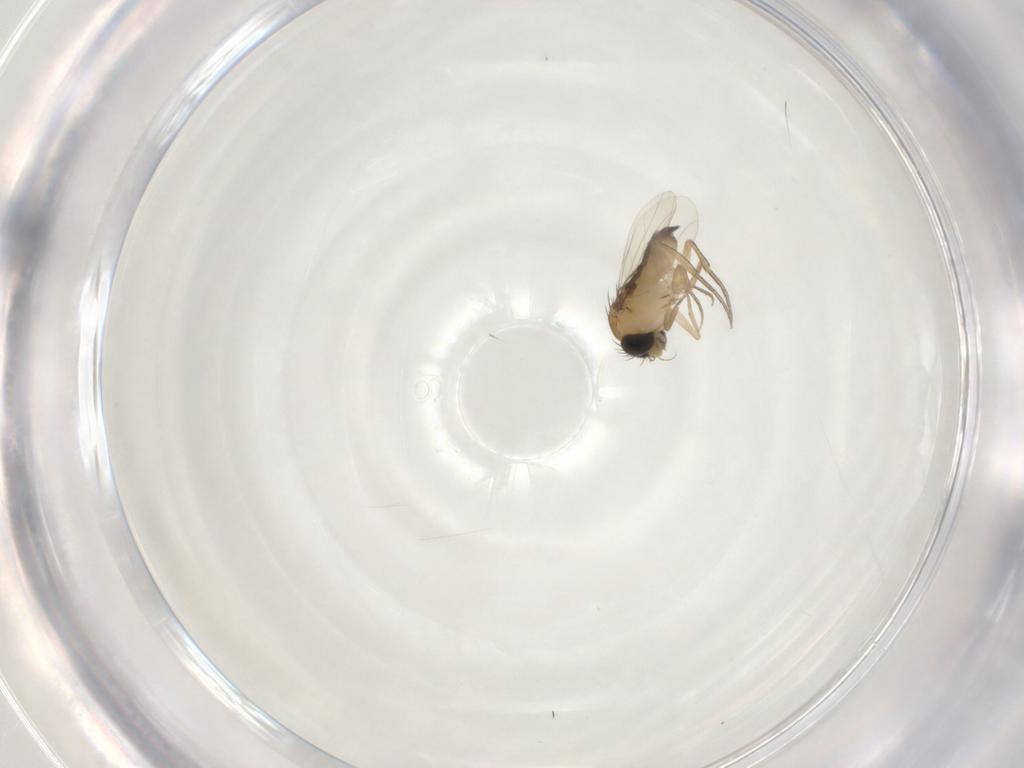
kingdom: Animalia
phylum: Arthropoda
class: Insecta
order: Diptera
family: Phoridae
